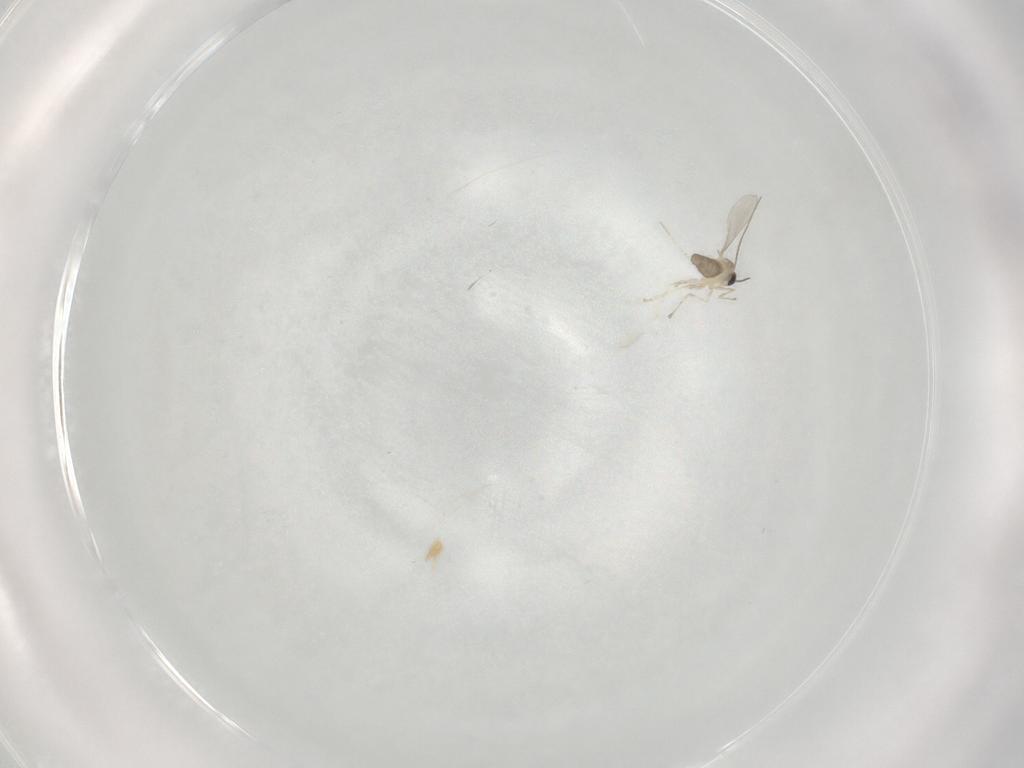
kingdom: Animalia
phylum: Arthropoda
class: Insecta
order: Diptera
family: Cecidomyiidae
